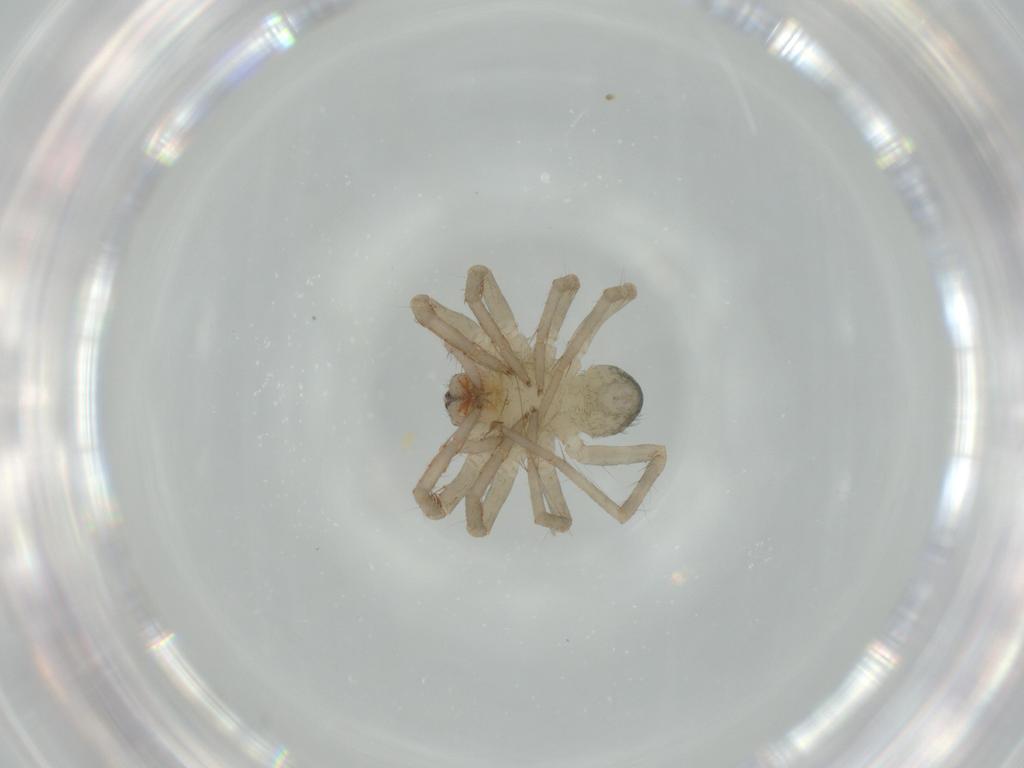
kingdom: Animalia
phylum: Arthropoda
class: Arachnida
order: Araneae
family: Ctenidae
